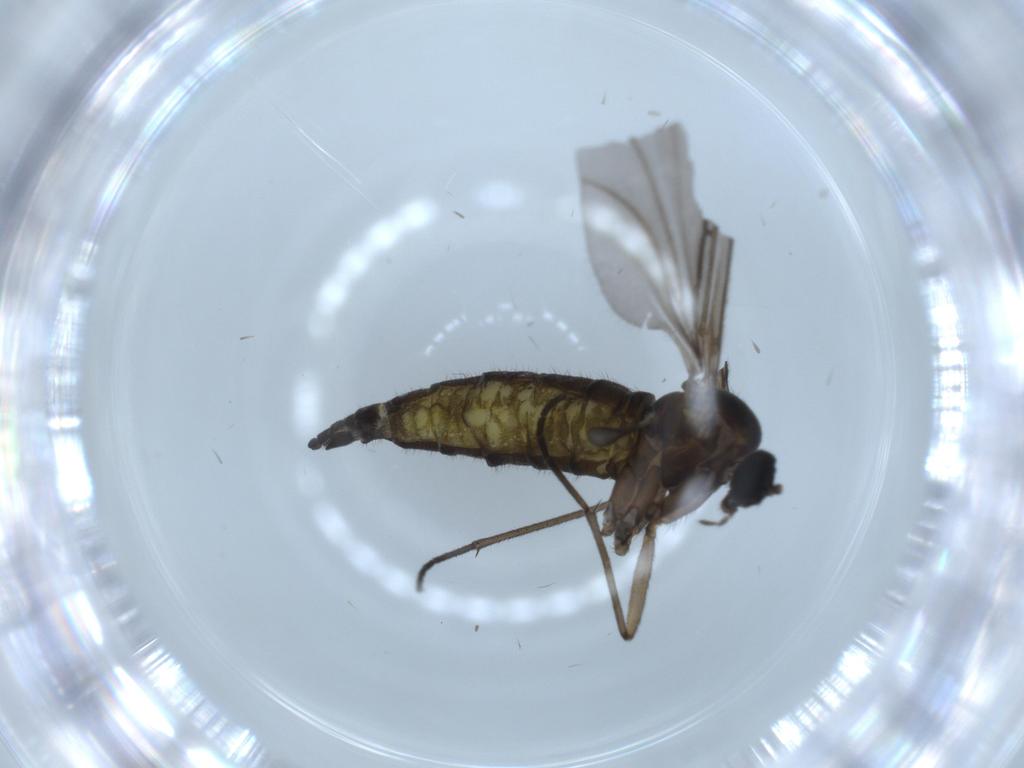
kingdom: Animalia
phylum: Arthropoda
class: Insecta
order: Diptera
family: Sciaridae
